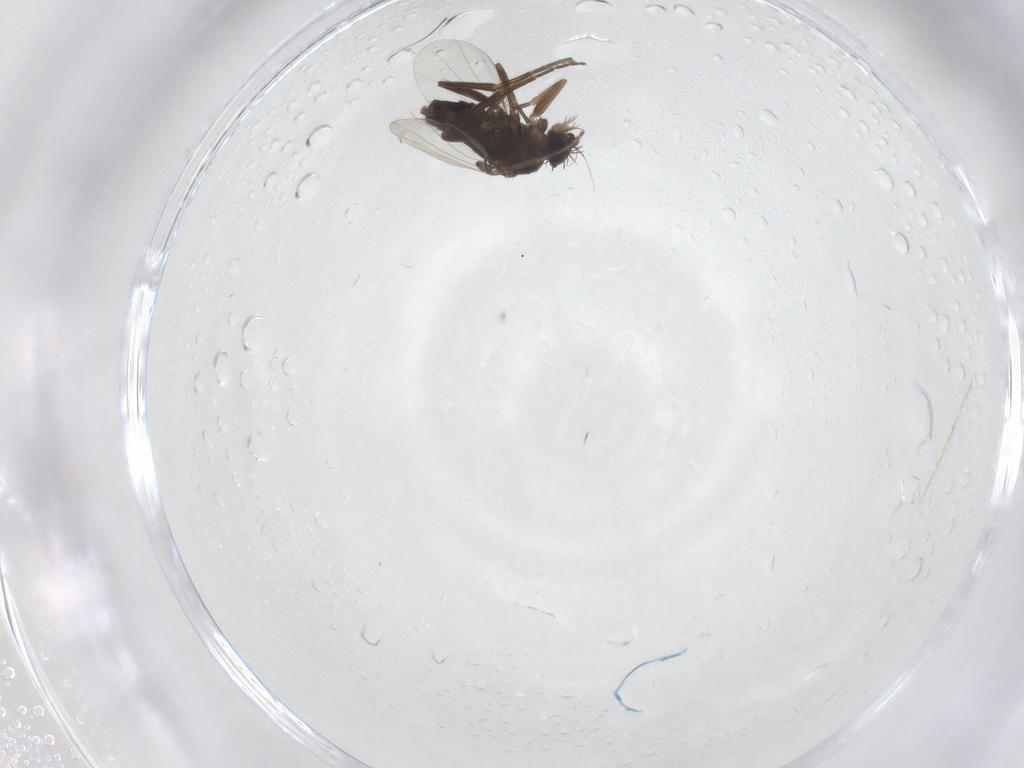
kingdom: Animalia
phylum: Arthropoda
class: Insecta
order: Diptera
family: Phoridae
